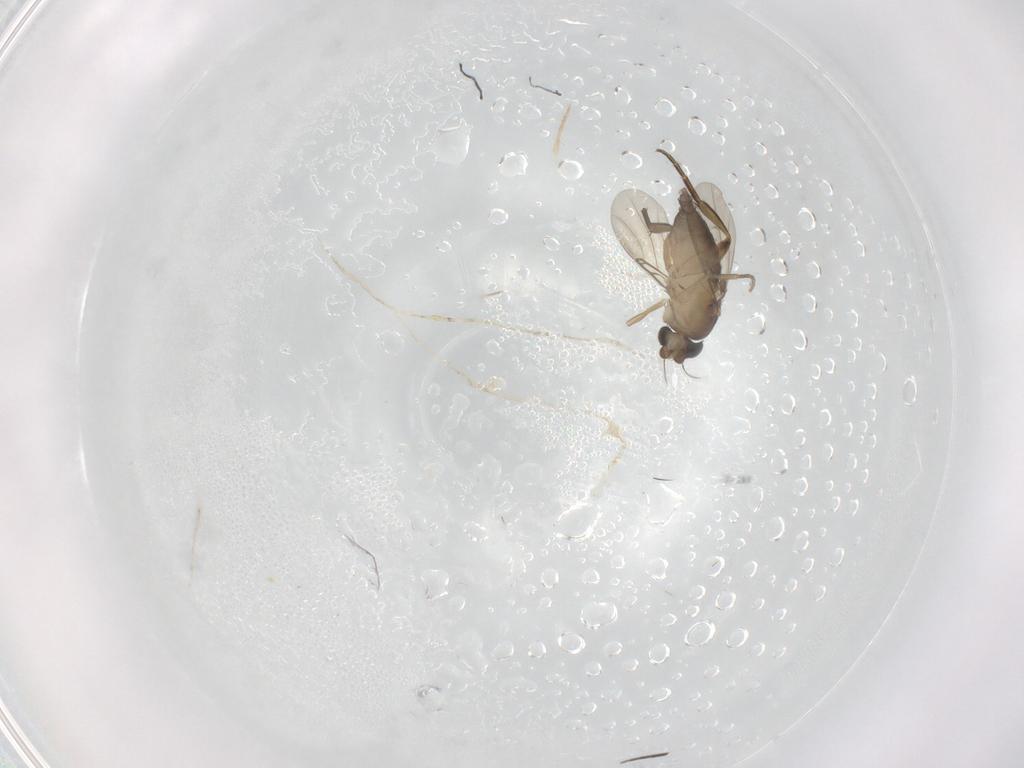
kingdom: Animalia
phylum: Arthropoda
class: Insecta
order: Diptera
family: Phoridae
